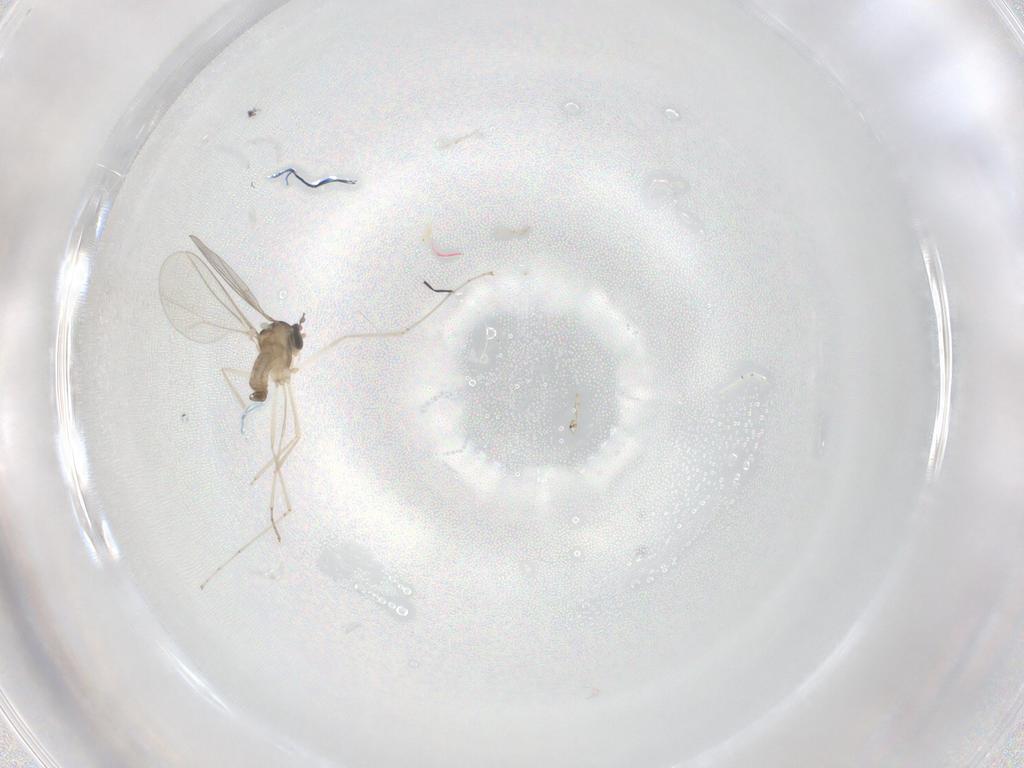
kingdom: Animalia
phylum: Arthropoda
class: Insecta
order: Diptera
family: Cecidomyiidae
